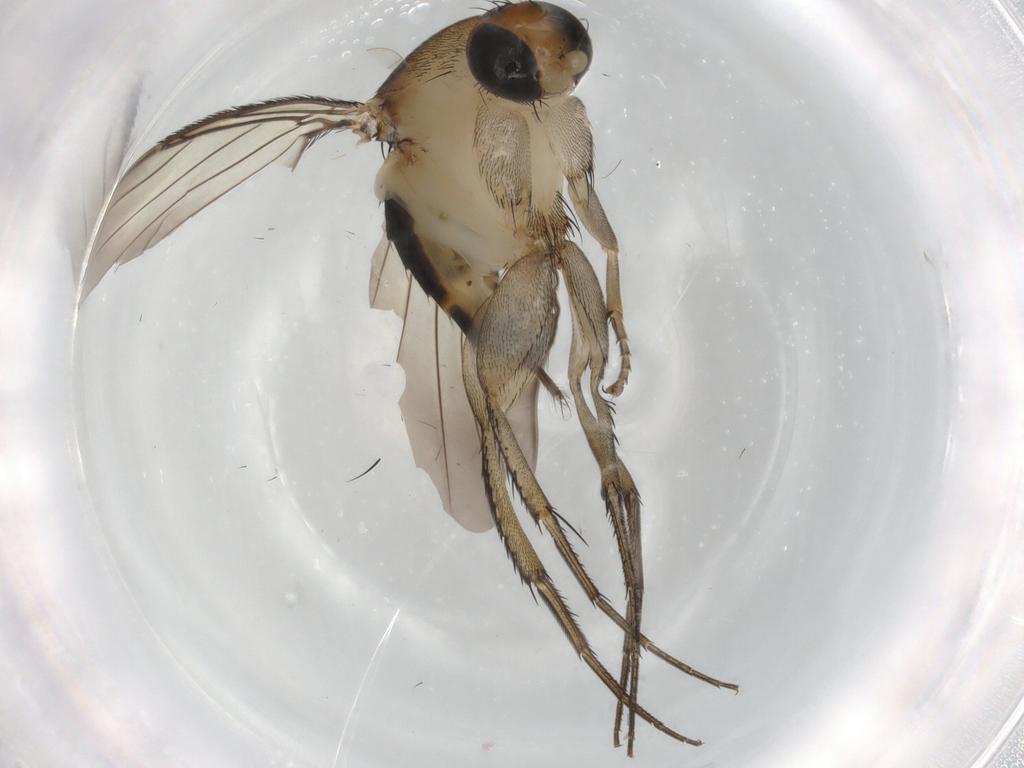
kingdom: Animalia
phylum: Arthropoda
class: Insecta
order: Diptera
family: Phoridae
